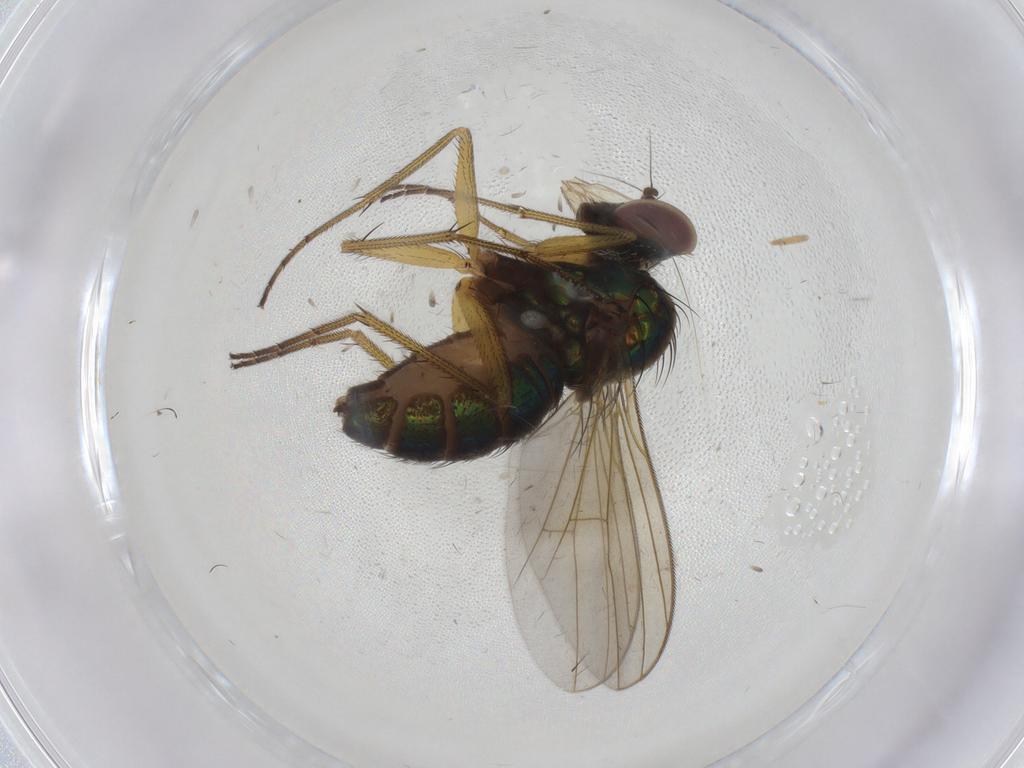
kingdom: Animalia
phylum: Arthropoda
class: Insecta
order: Diptera
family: Dolichopodidae
